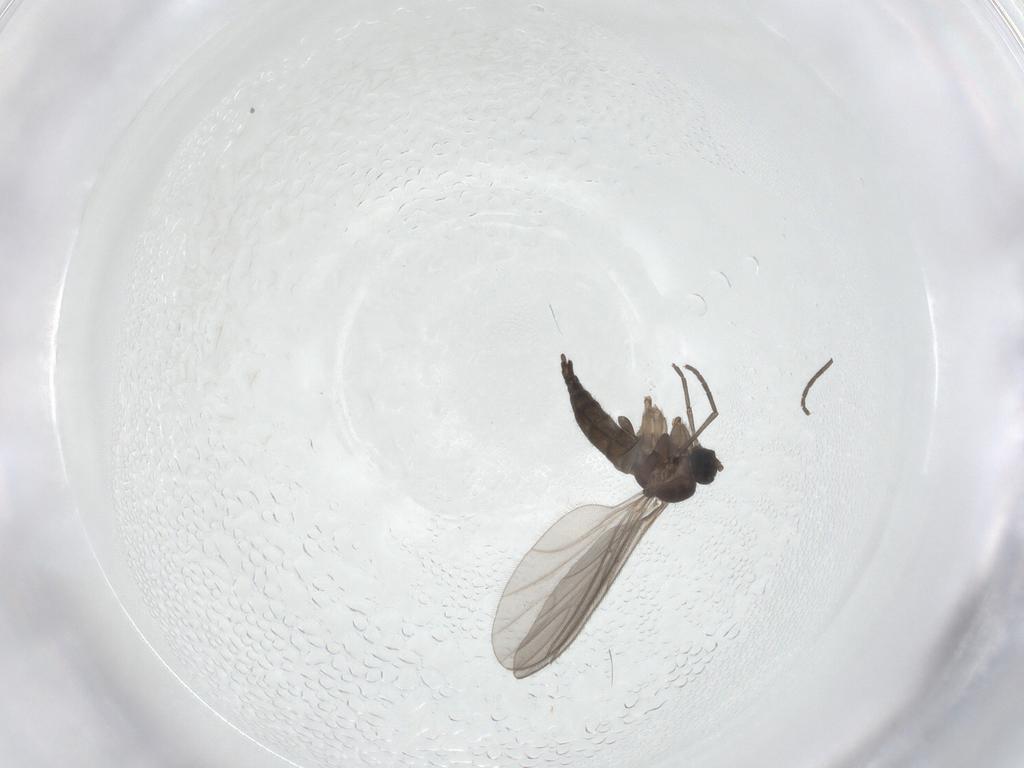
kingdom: Animalia
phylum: Arthropoda
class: Insecta
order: Diptera
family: Sciaridae
